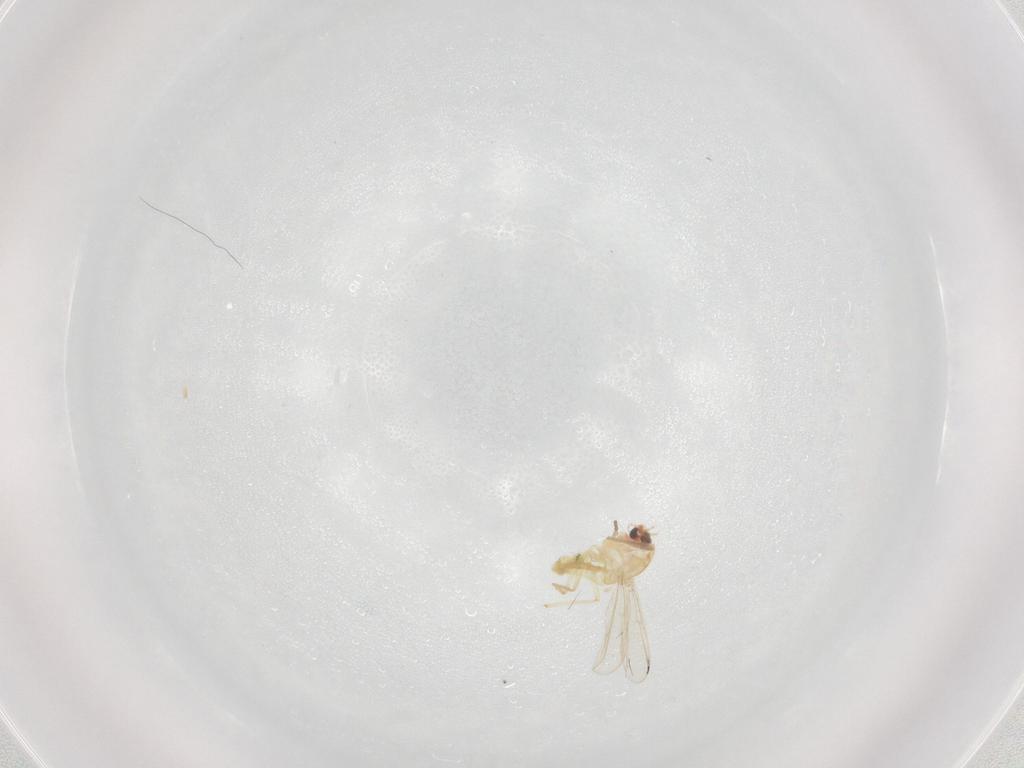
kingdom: Animalia
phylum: Arthropoda
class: Insecta
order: Diptera
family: Chironomidae
